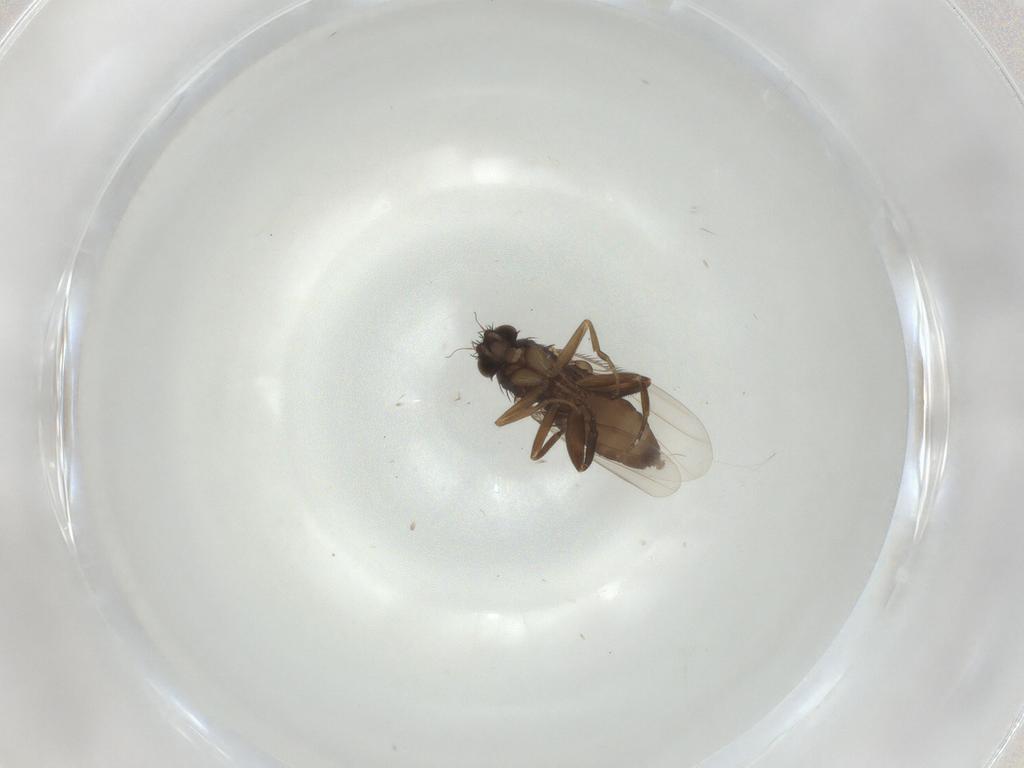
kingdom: Animalia
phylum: Arthropoda
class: Insecta
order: Diptera
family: Phoridae
